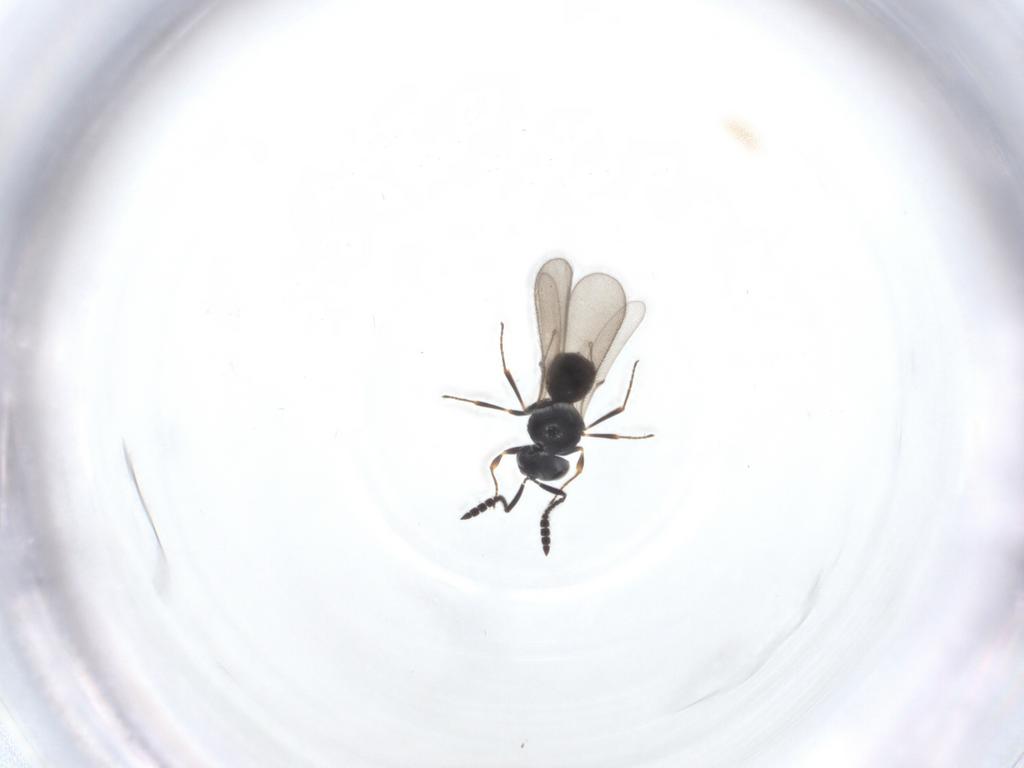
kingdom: Animalia
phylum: Arthropoda
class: Insecta
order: Hymenoptera
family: Scelionidae
